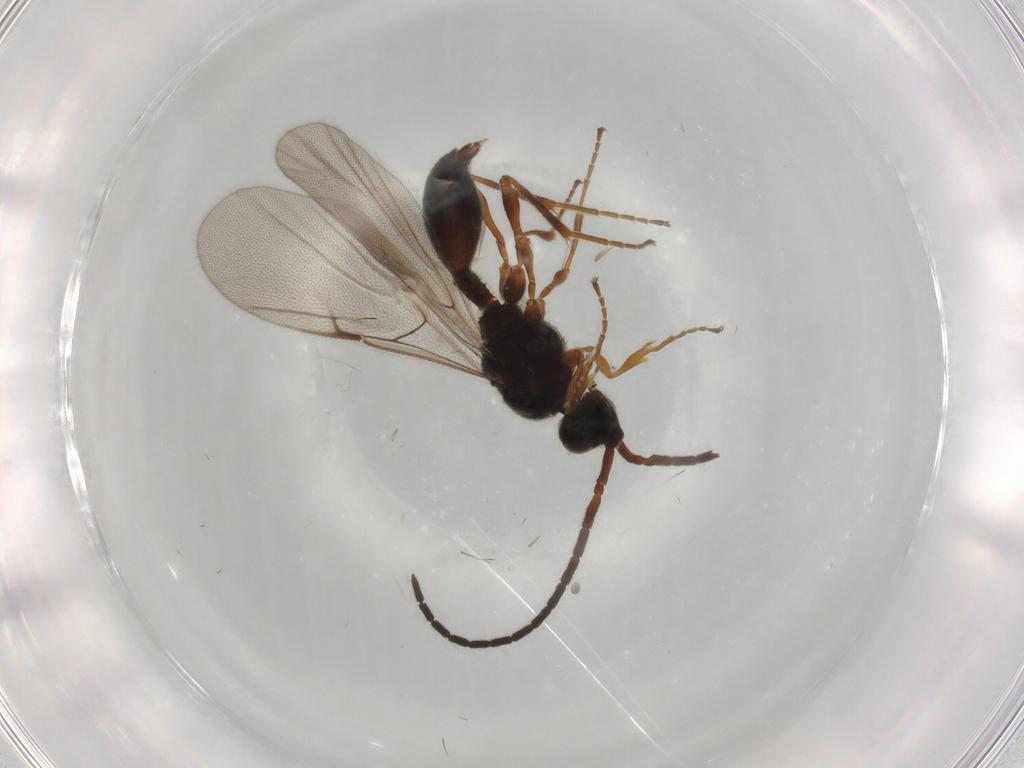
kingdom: Animalia
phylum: Arthropoda
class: Insecta
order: Hymenoptera
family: Diapriidae
